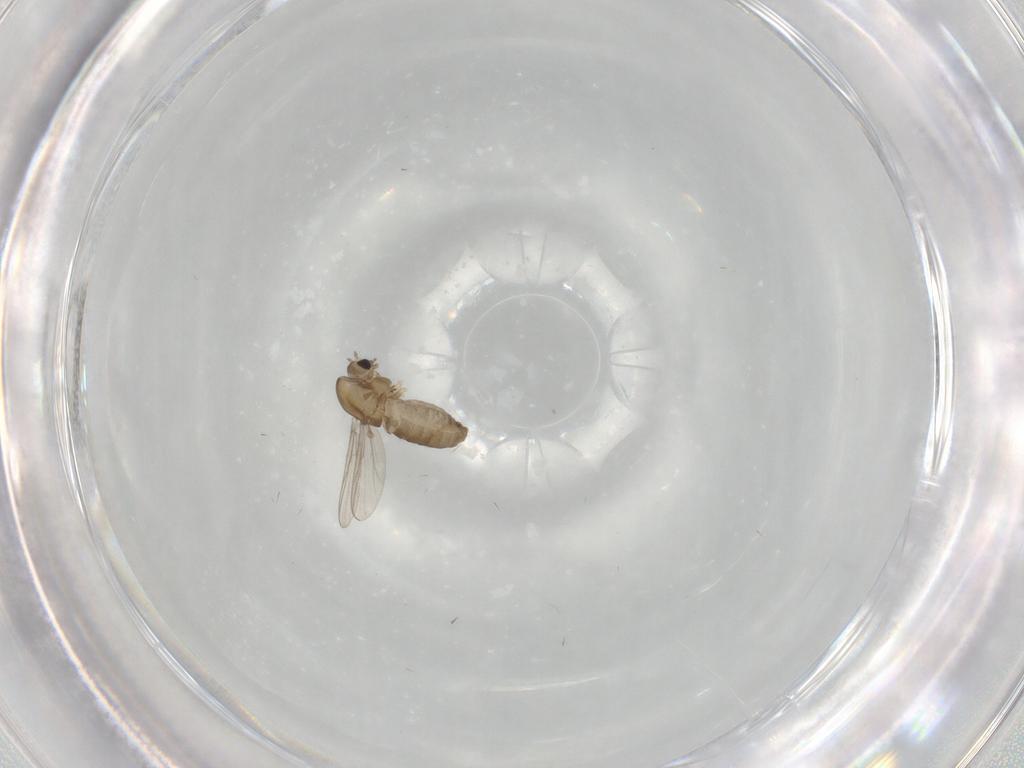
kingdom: Animalia
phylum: Arthropoda
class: Insecta
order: Diptera
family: Chironomidae
